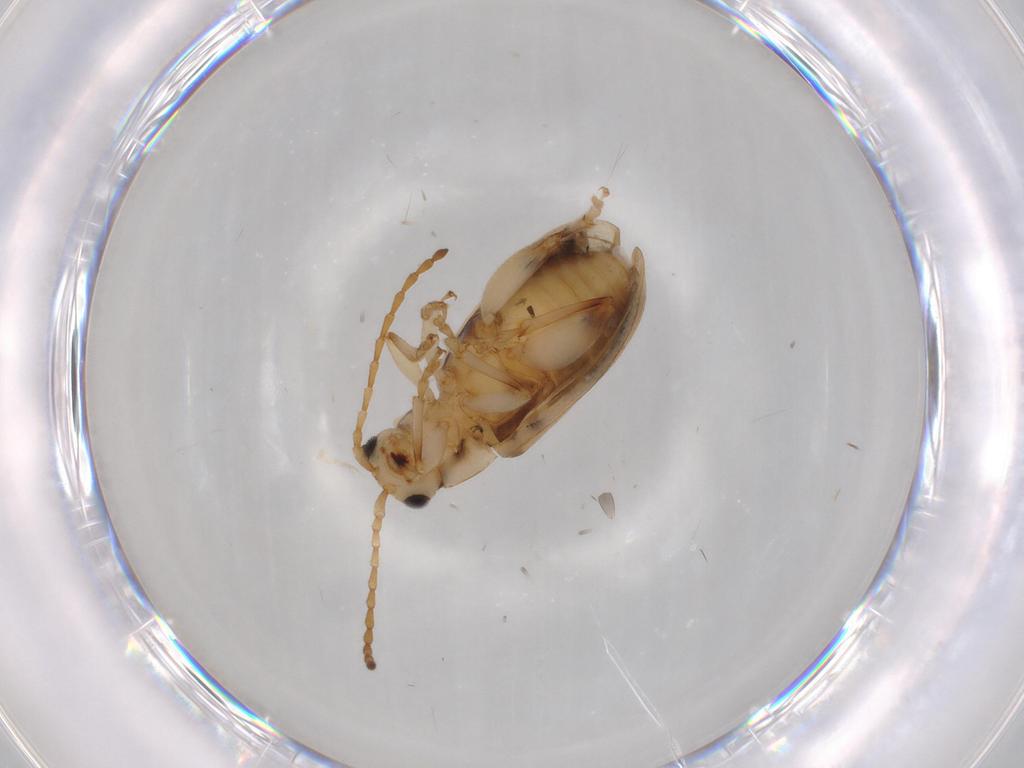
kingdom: Animalia
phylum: Arthropoda
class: Insecta
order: Coleoptera
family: Chrysomelidae
